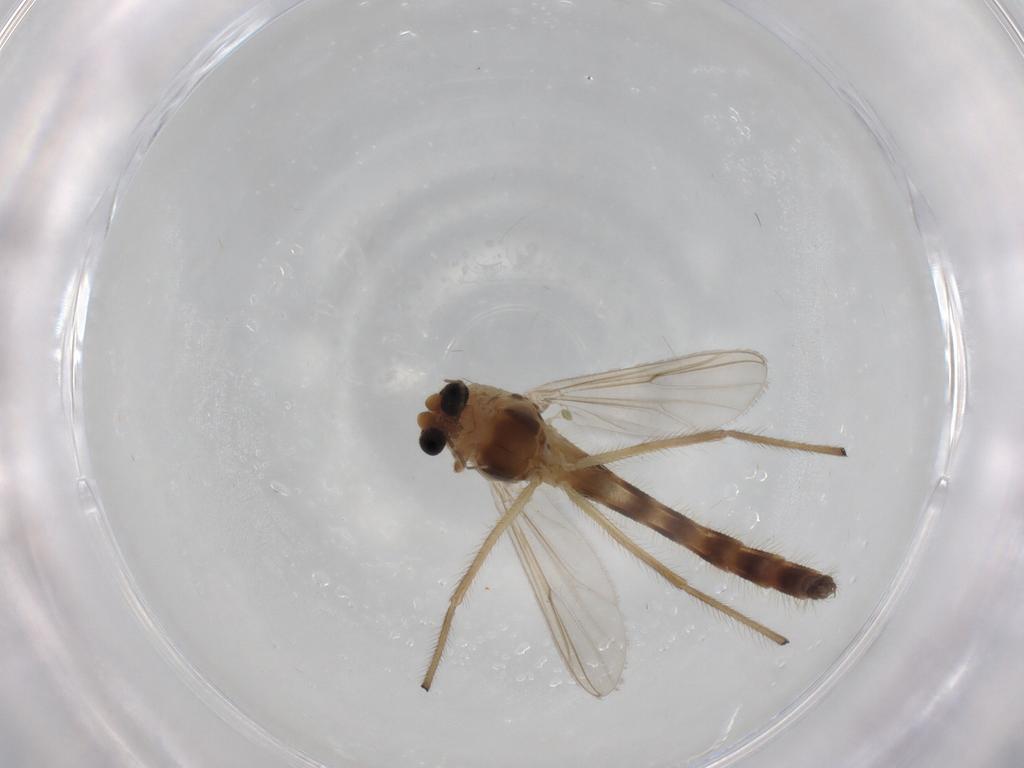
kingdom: Animalia
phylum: Arthropoda
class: Insecta
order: Diptera
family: Chironomidae
